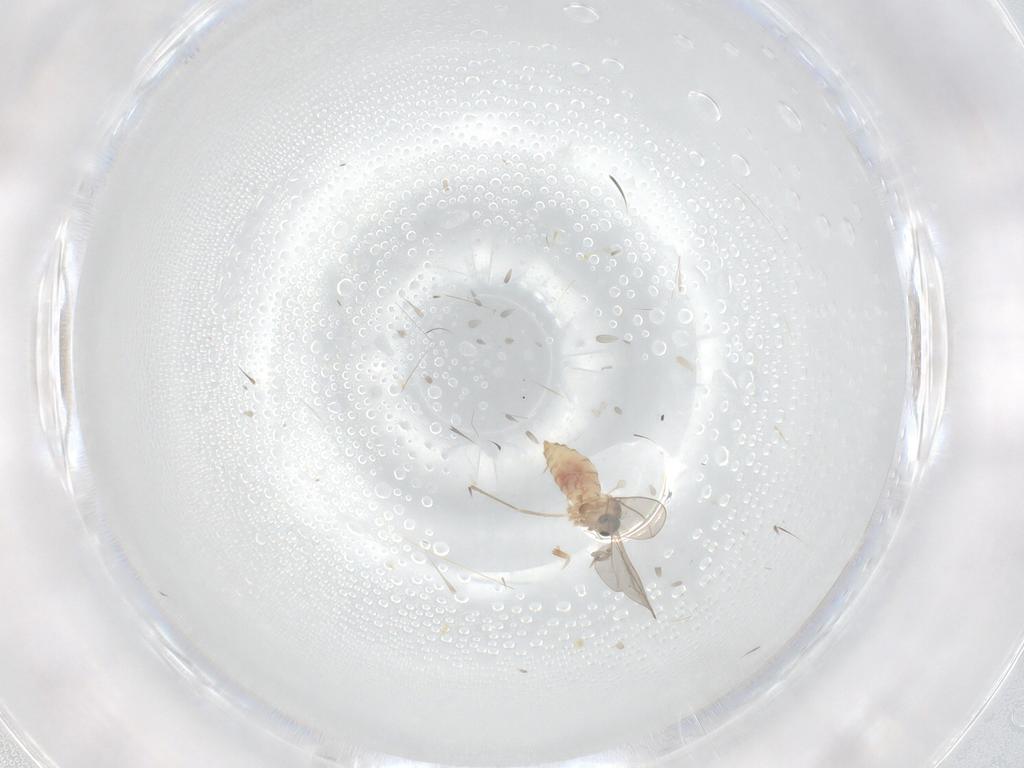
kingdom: Animalia
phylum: Arthropoda
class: Insecta
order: Diptera
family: Cecidomyiidae
